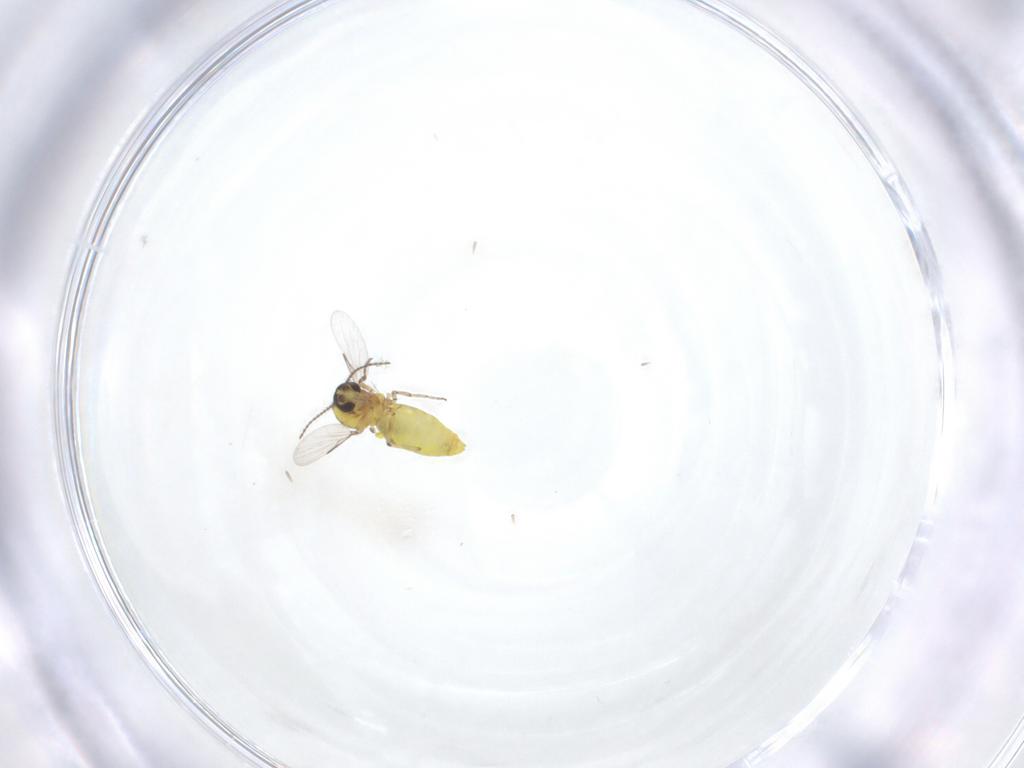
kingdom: Animalia
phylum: Arthropoda
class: Insecta
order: Diptera
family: Ceratopogonidae
